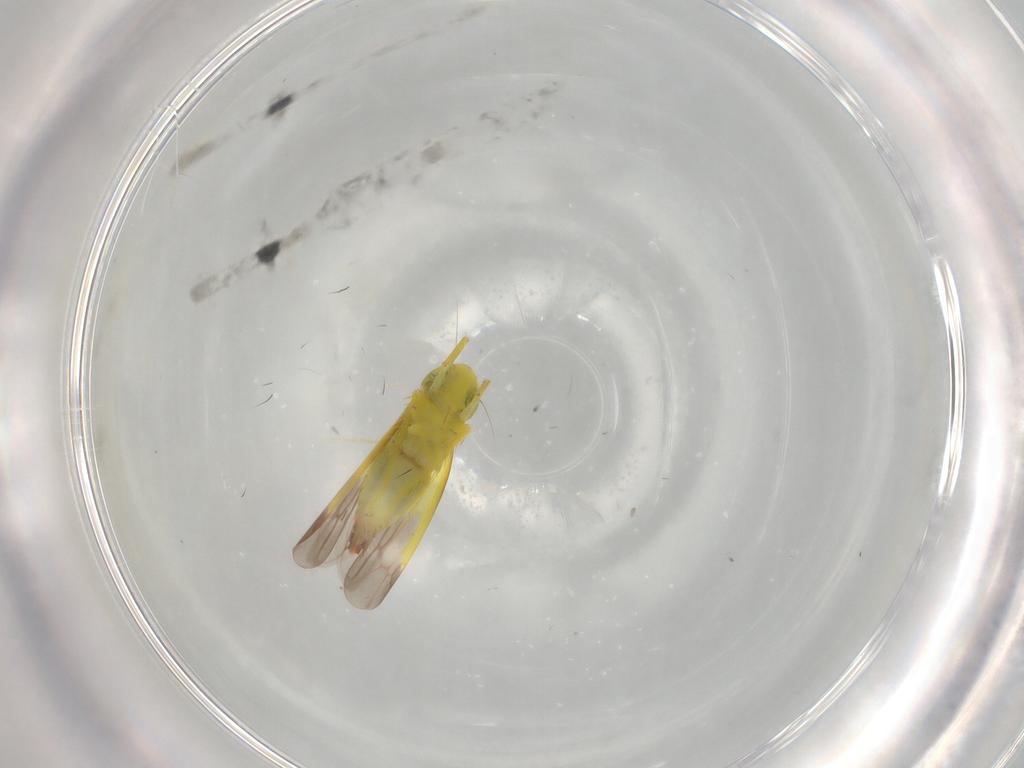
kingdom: Animalia
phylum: Arthropoda
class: Insecta
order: Hemiptera
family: Cicadellidae
